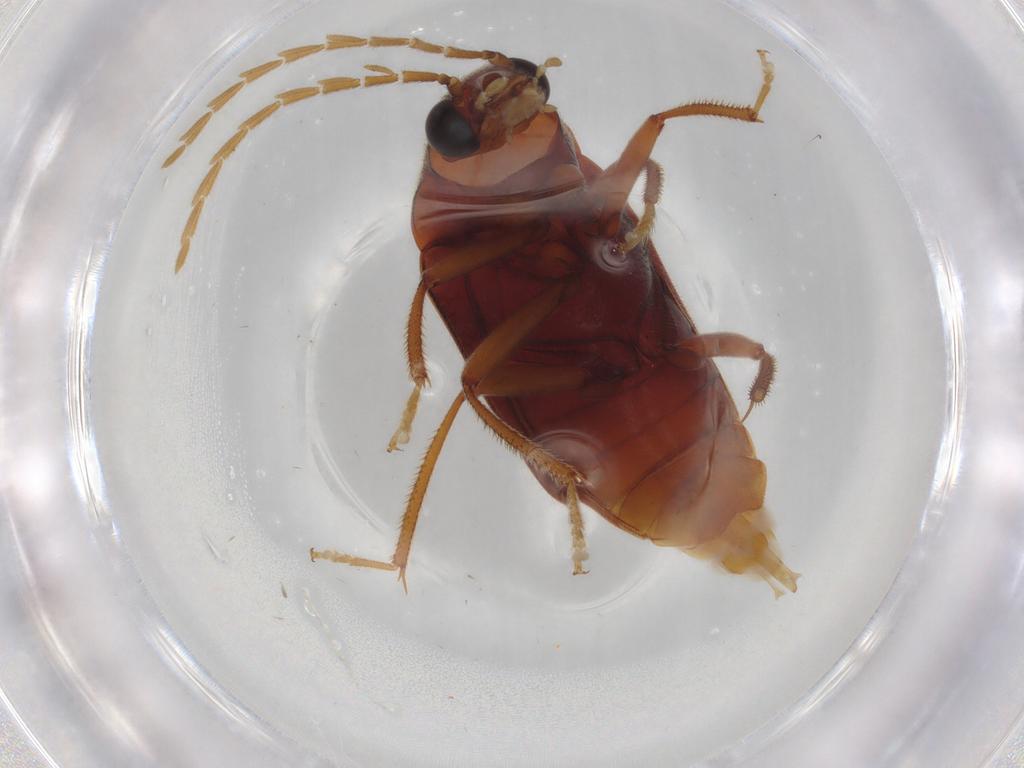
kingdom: Animalia
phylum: Arthropoda
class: Insecta
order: Coleoptera
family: Ptilodactylidae
